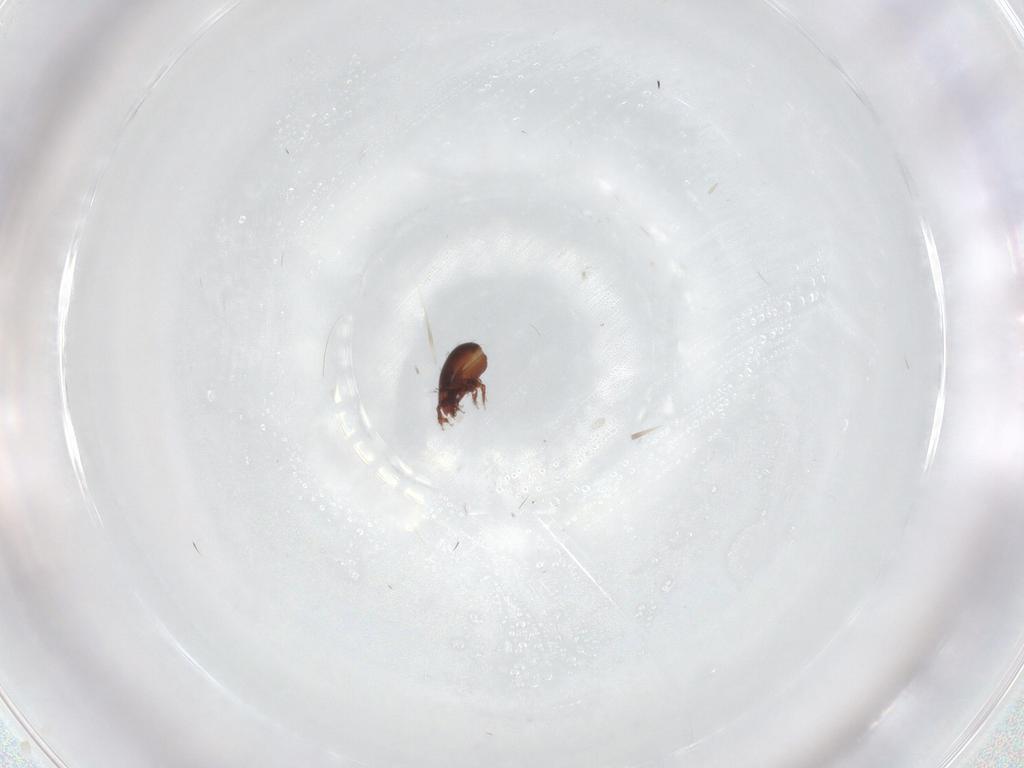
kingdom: Animalia
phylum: Arthropoda
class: Arachnida
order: Sarcoptiformes
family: Achipteriidae
